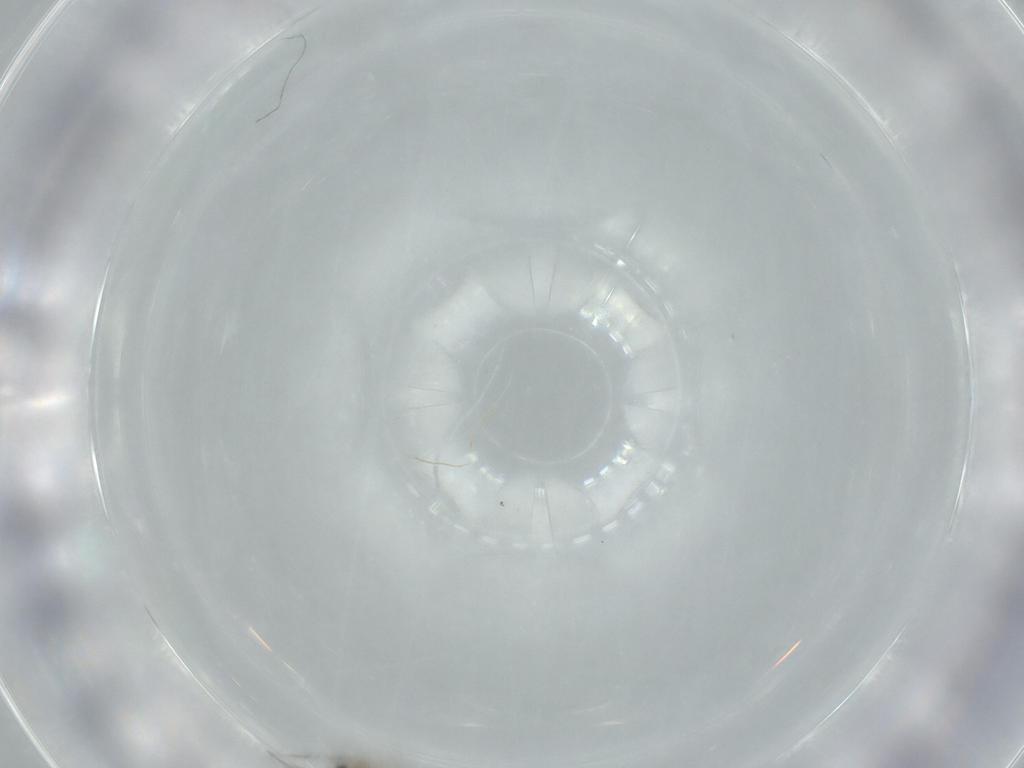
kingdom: Animalia
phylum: Arthropoda
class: Insecta
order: Diptera
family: Cecidomyiidae
